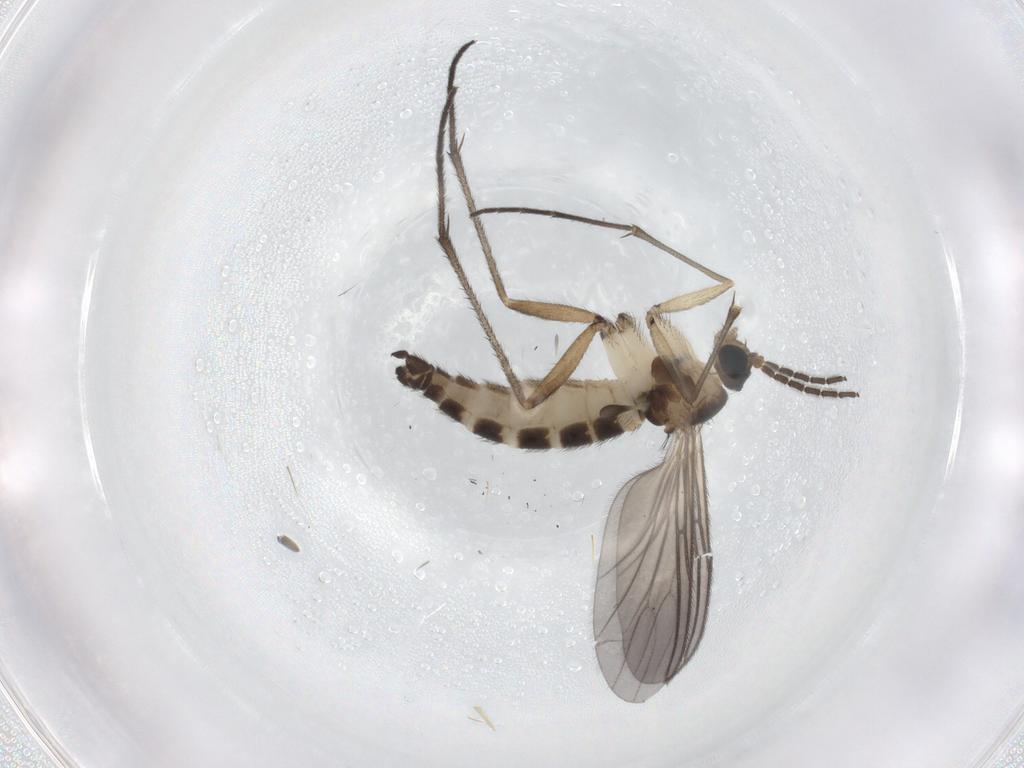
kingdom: Animalia
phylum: Arthropoda
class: Insecta
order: Diptera
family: Sciaridae
